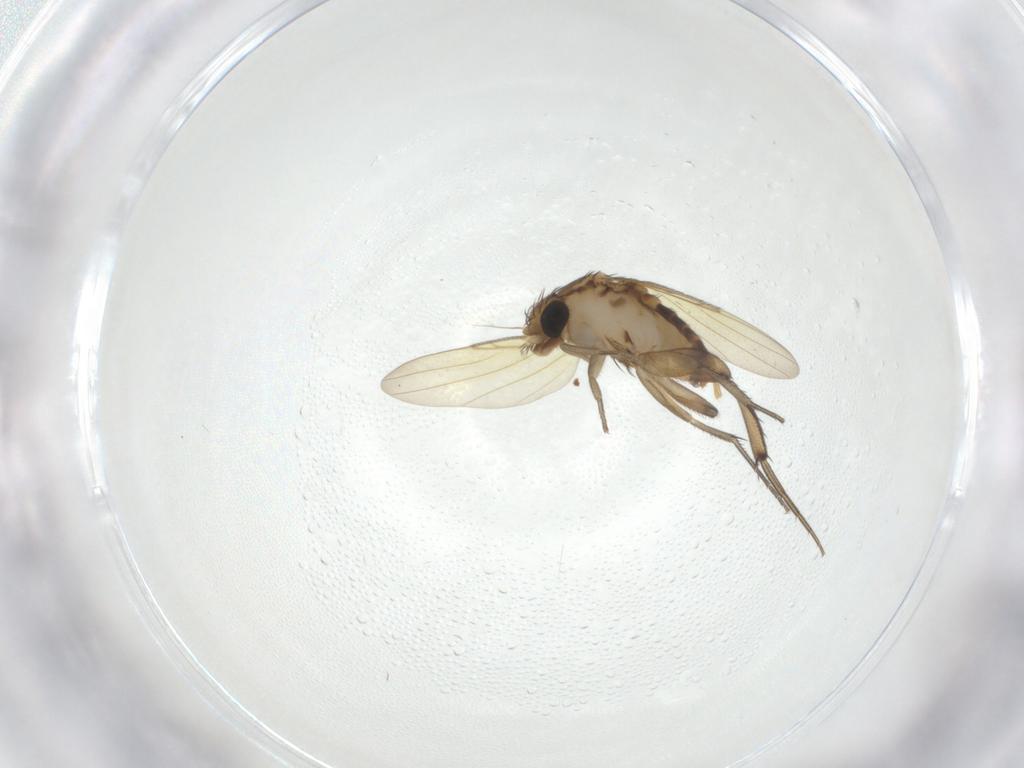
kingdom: Animalia
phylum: Arthropoda
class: Insecta
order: Diptera
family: Phoridae
